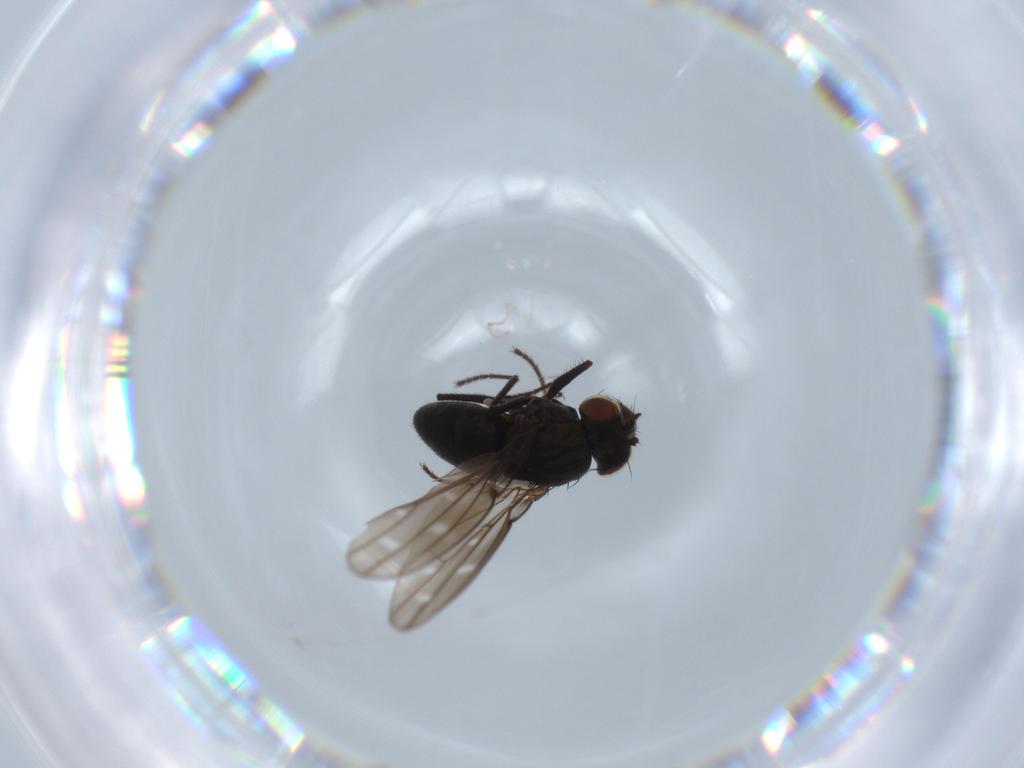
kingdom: Animalia
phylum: Arthropoda
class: Insecta
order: Diptera
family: Ephydridae
